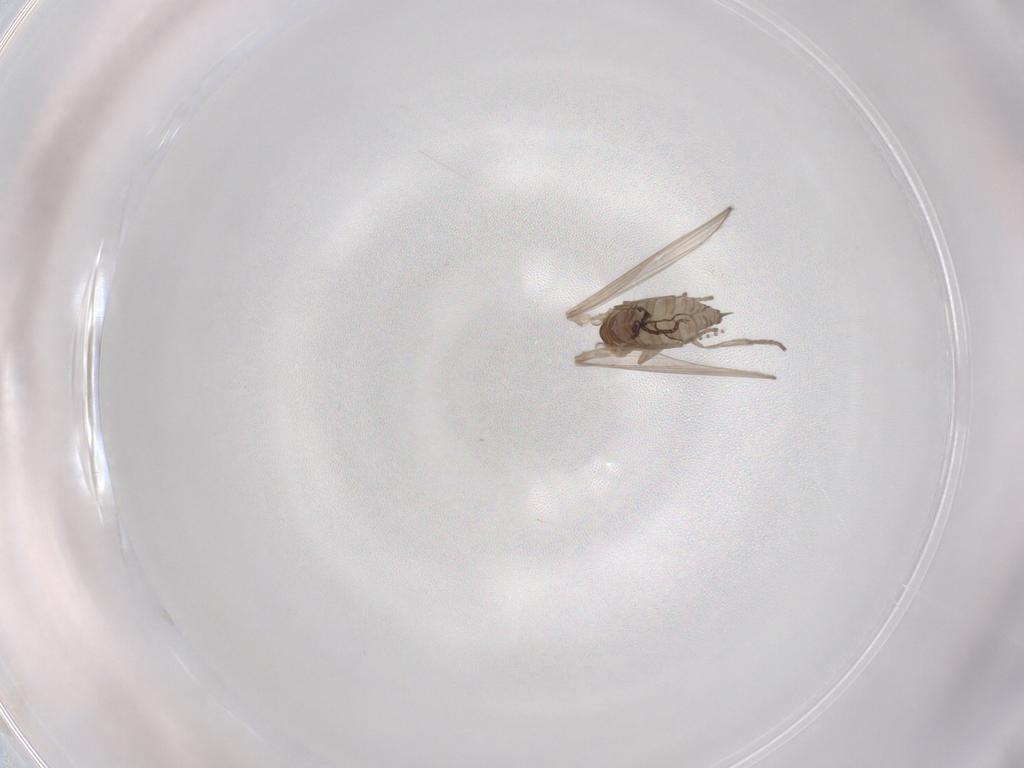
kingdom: Animalia
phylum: Arthropoda
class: Insecta
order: Diptera
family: Psychodidae
